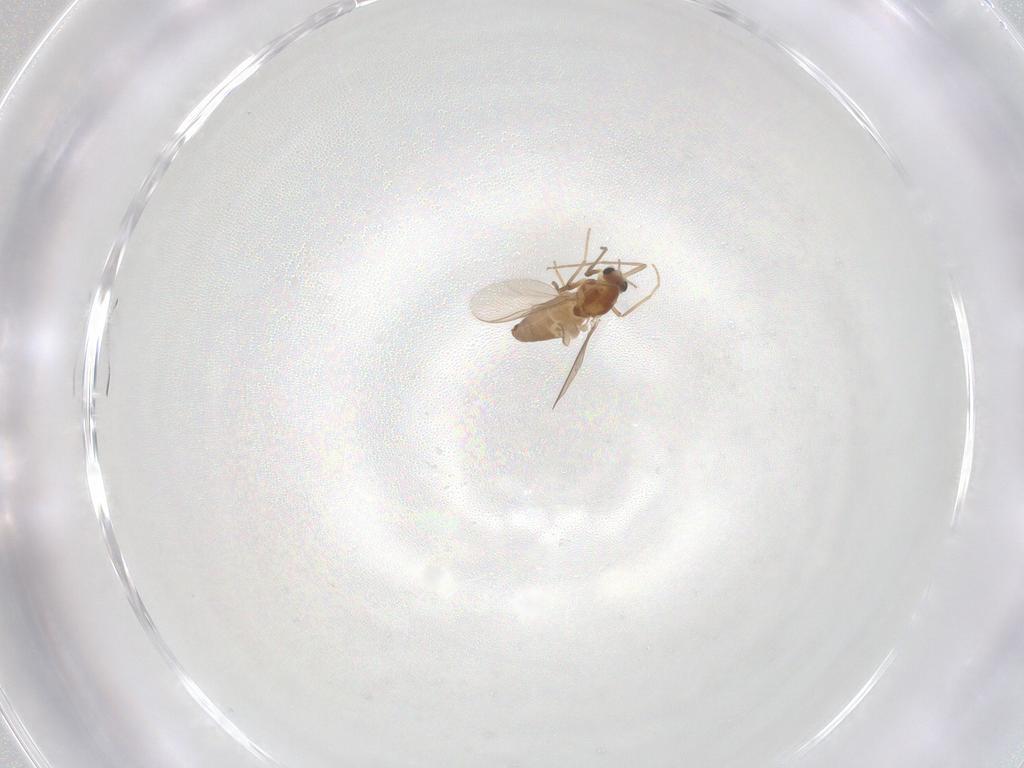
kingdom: Animalia
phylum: Arthropoda
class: Insecta
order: Diptera
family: Chironomidae
